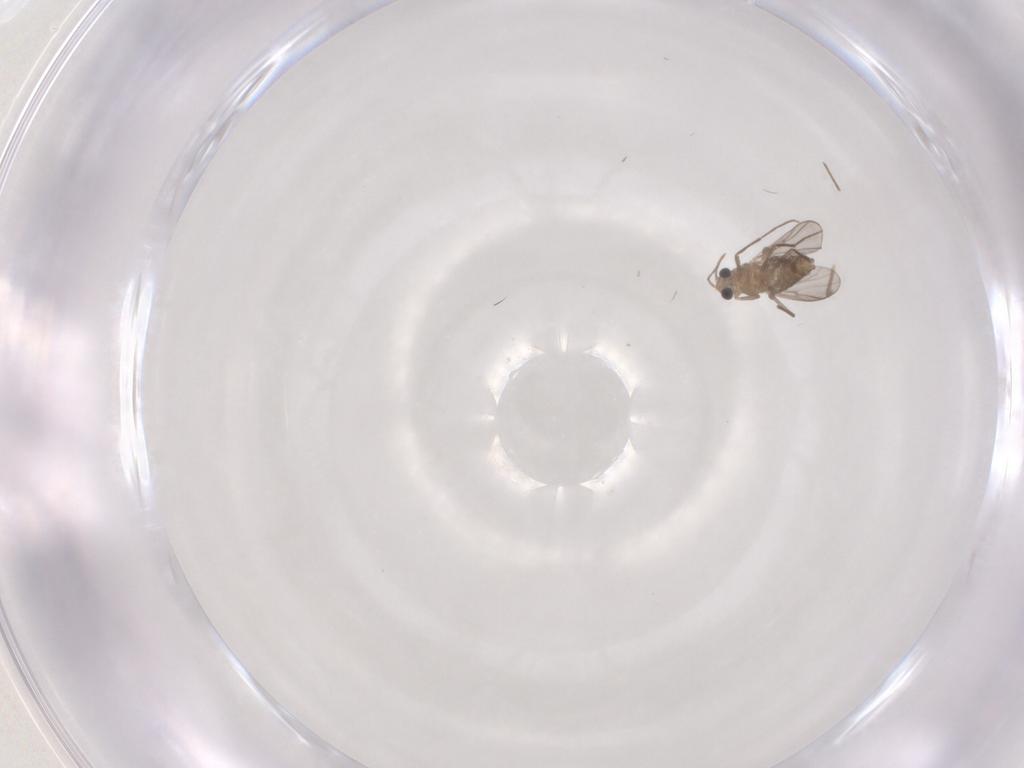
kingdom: Animalia
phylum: Arthropoda
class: Insecta
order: Diptera
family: Chironomidae
